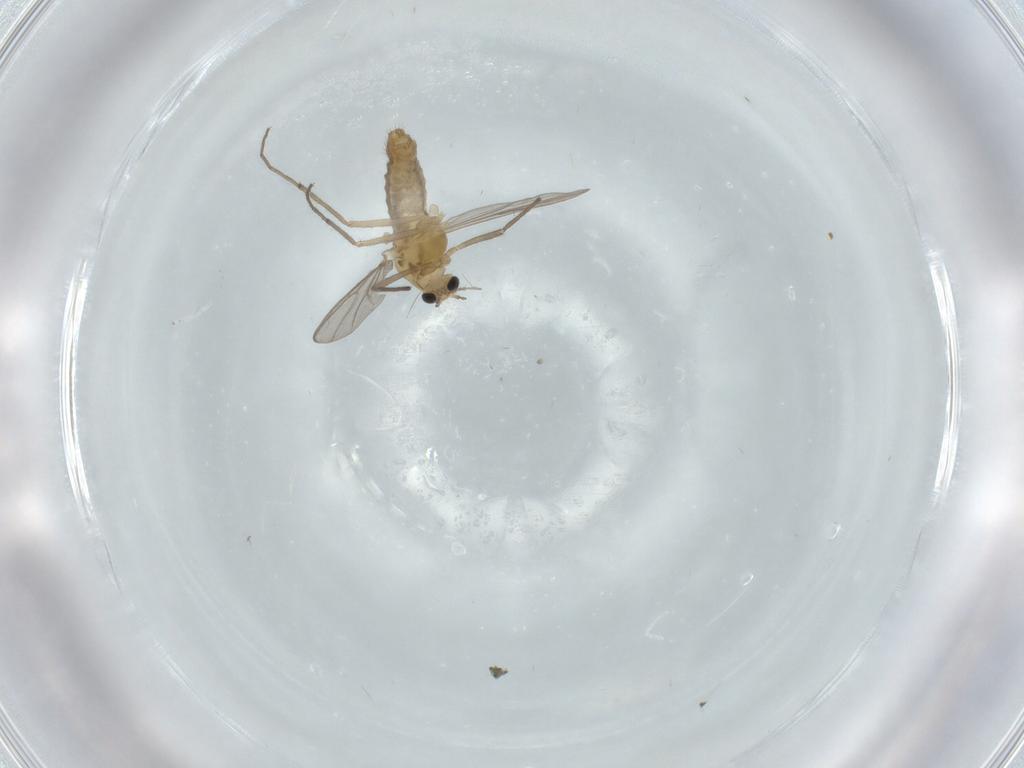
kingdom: Animalia
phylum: Arthropoda
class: Insecta
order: Diptera
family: Chironomidae
